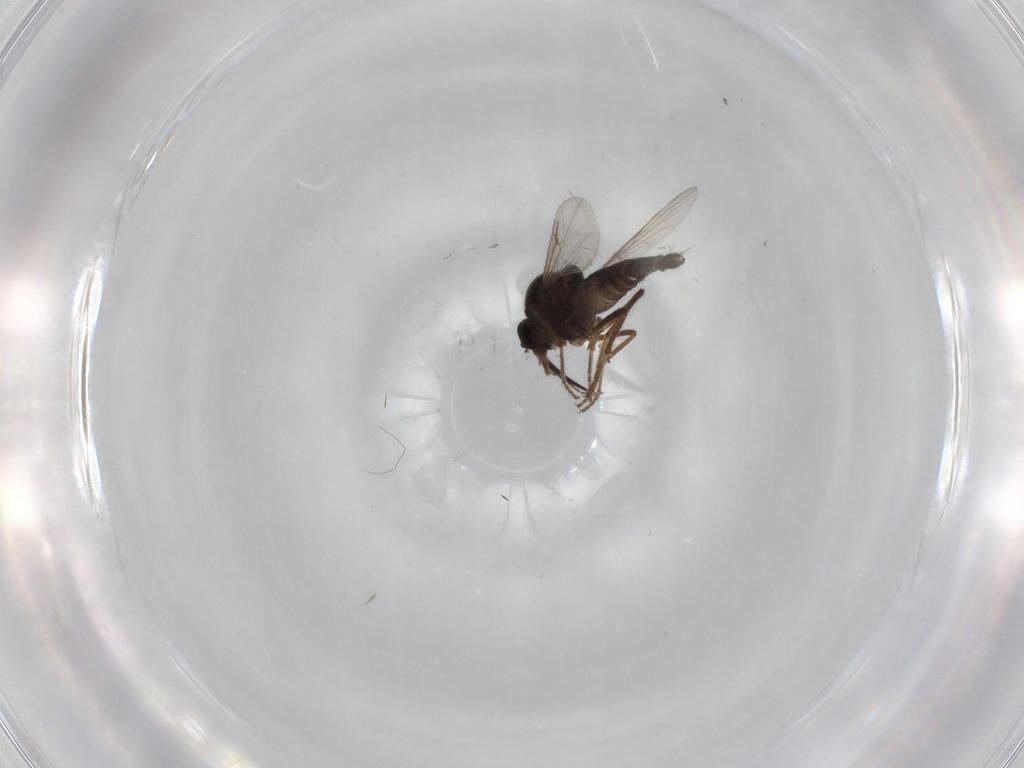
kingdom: Animalia
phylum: Arthropoda
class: Insecta
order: Diptera
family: Ceratopogonidae
